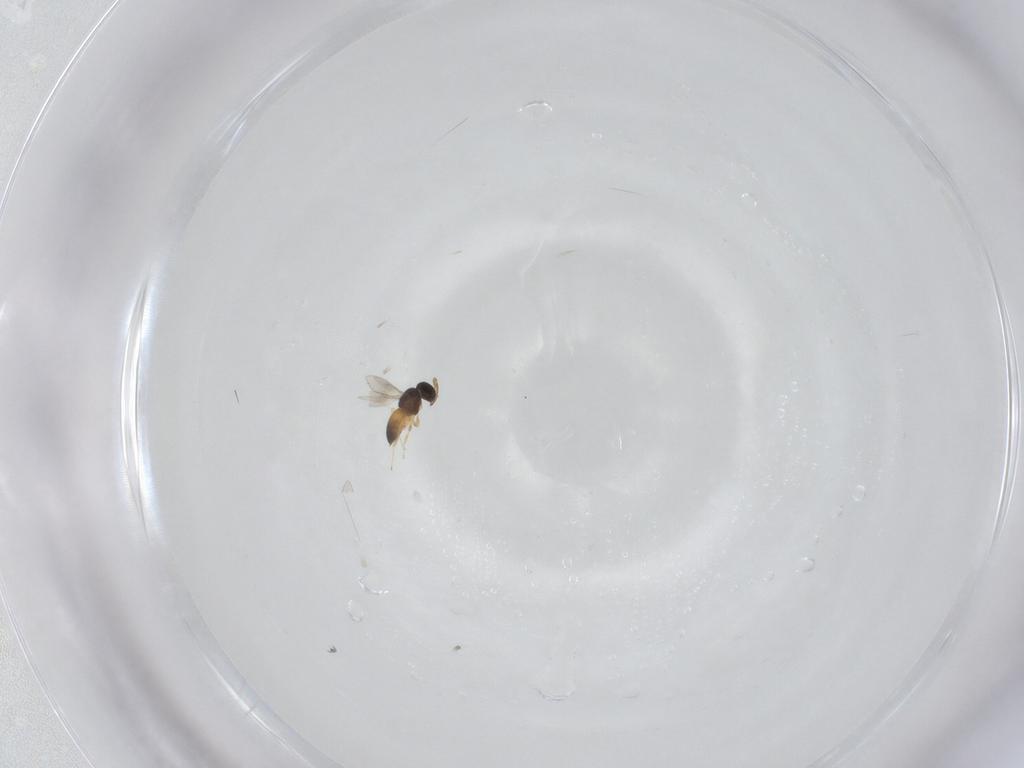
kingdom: Animalia
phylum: Arthropoda
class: Insecta
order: Hymenoptera
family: Scelionidae
